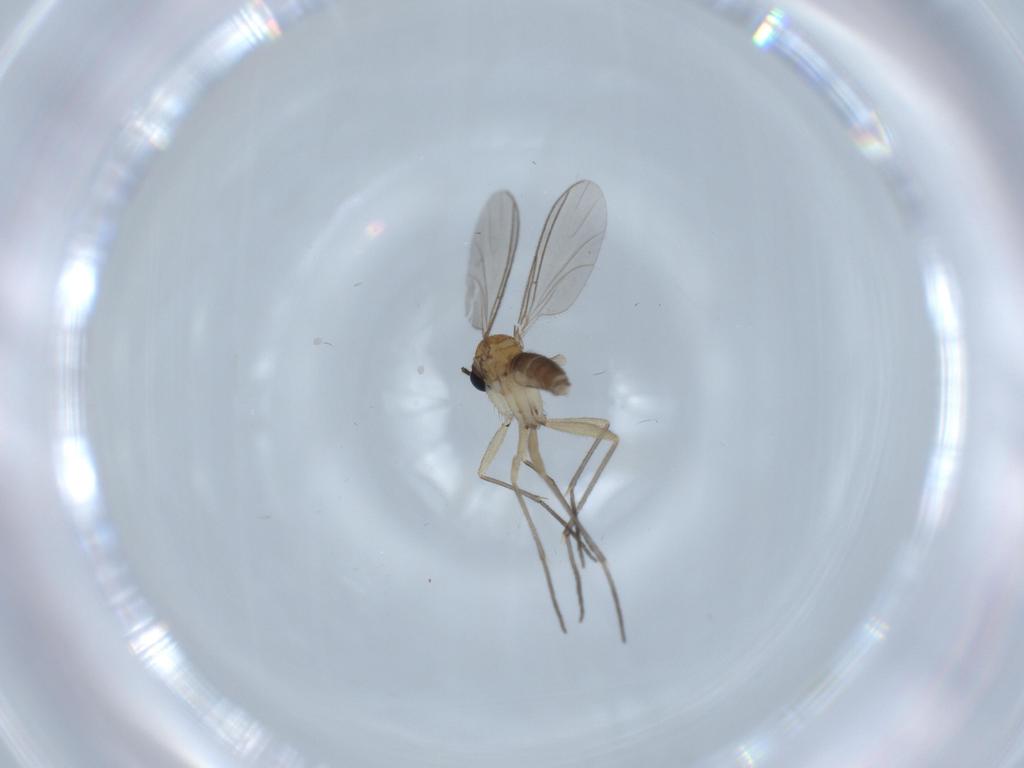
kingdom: Animalia
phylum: Arthropoda
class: Insecta
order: Diptera
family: Sciaridae
